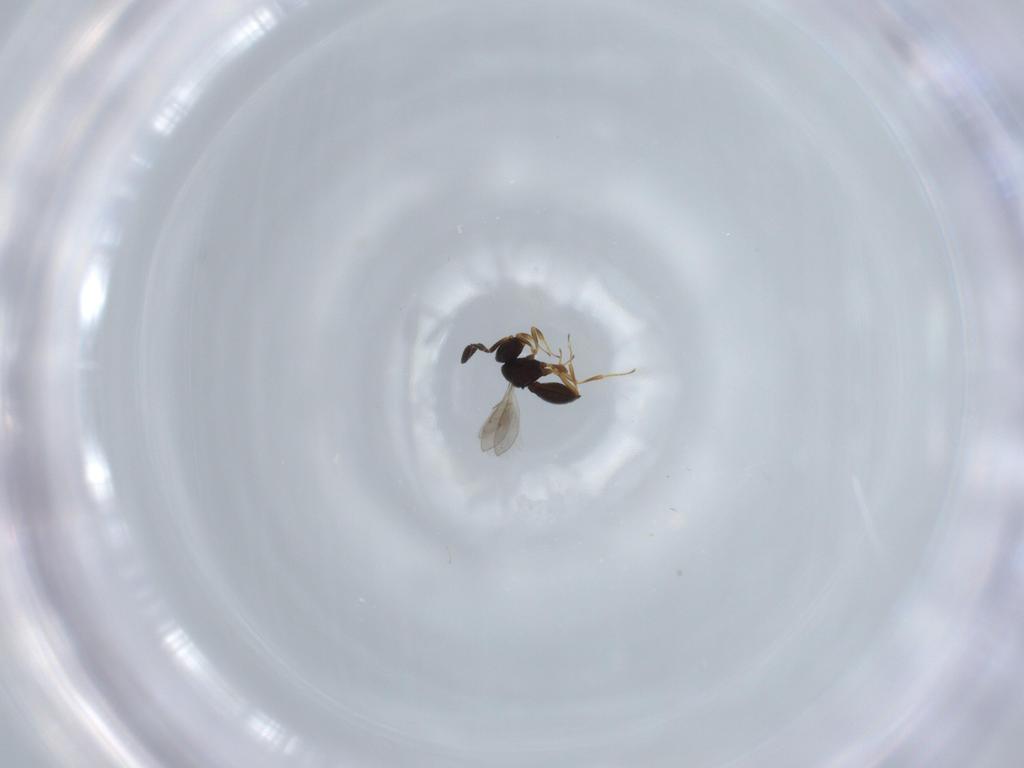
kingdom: Animalia
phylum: Arthropoda
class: Insecta
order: Hymenoptera
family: Scelionidae
